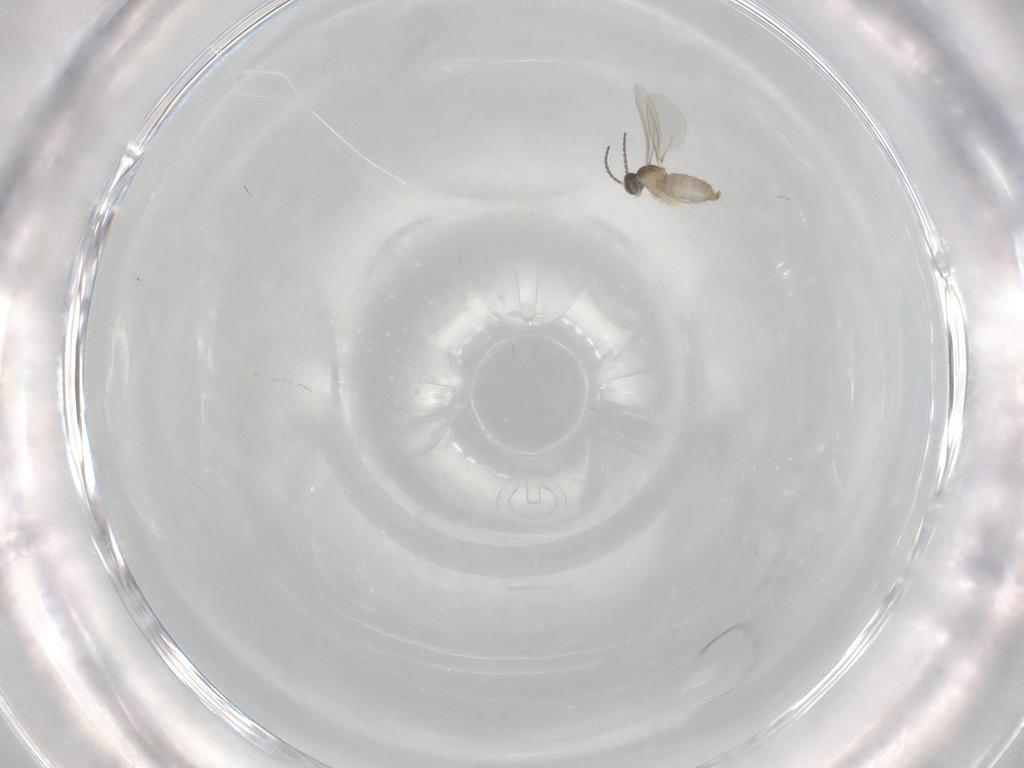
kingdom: Animalia
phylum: Arthropoda
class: Insecta
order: Diptera
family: Cecidomyiidae
